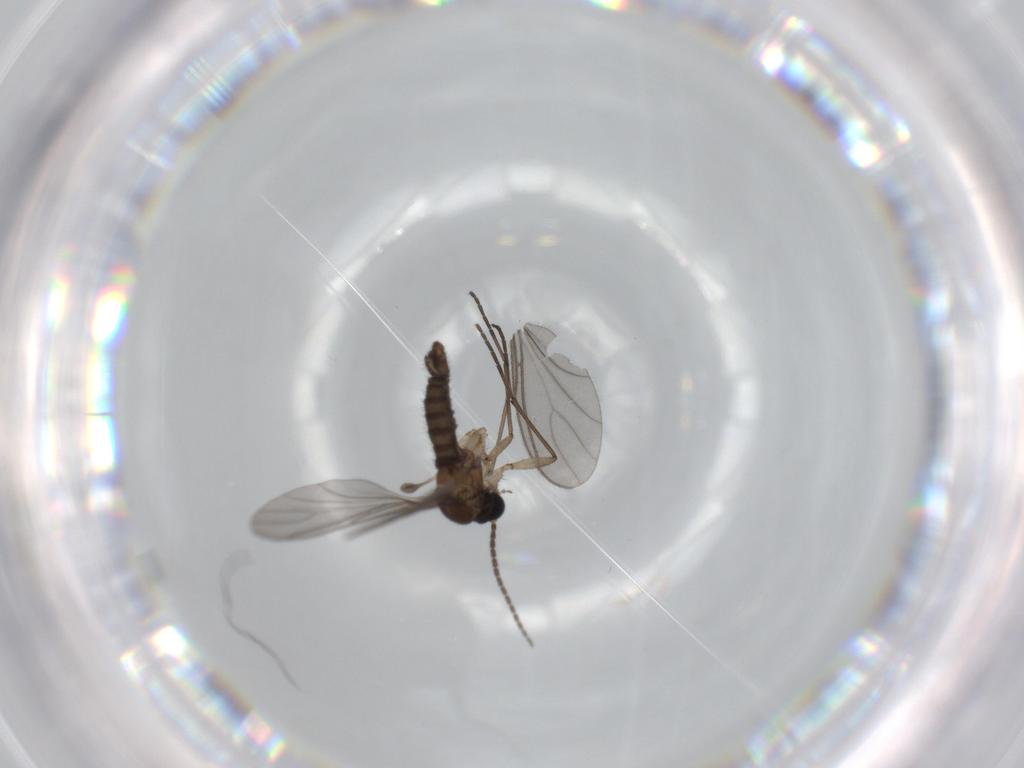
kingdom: Animalia
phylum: Arthropoda
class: Insecta
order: Diptera
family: Sciaridae
